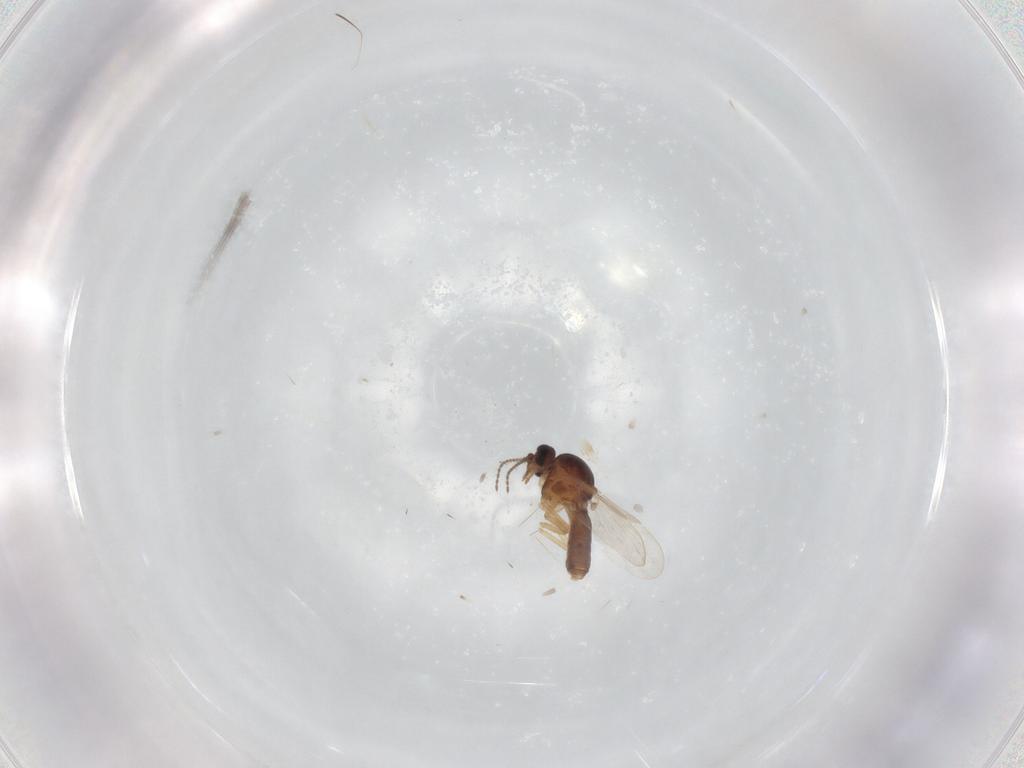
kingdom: Animalia
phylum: Arthropoda
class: Insecta
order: Diptera
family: Ceratopogonidae
